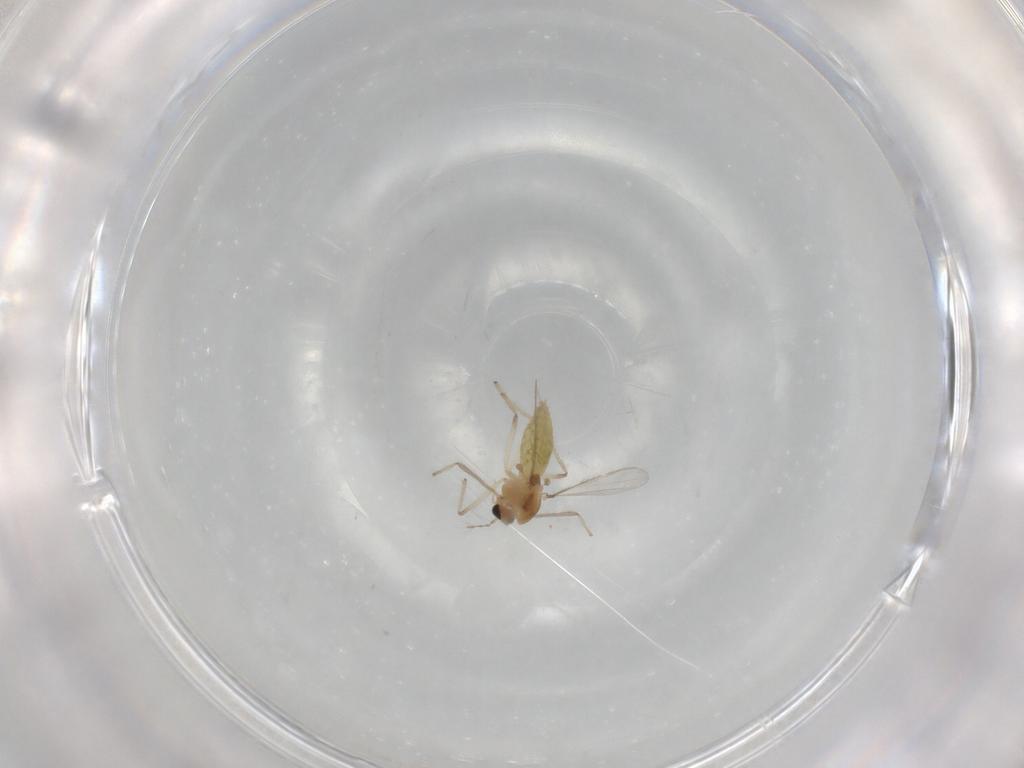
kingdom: Animalia
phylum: Arthropoda
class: Insecta
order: Diptera
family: Chironomidae
